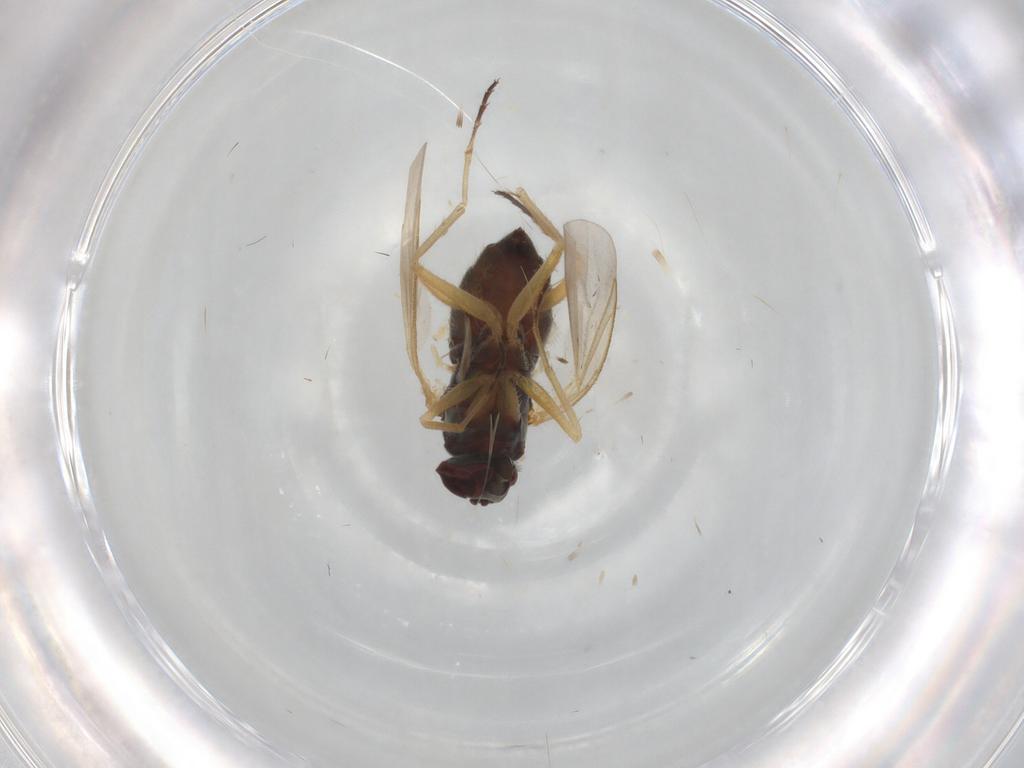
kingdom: Animalia
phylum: Arthropoda
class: Insecta
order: Diptera
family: Dolichopodidae
